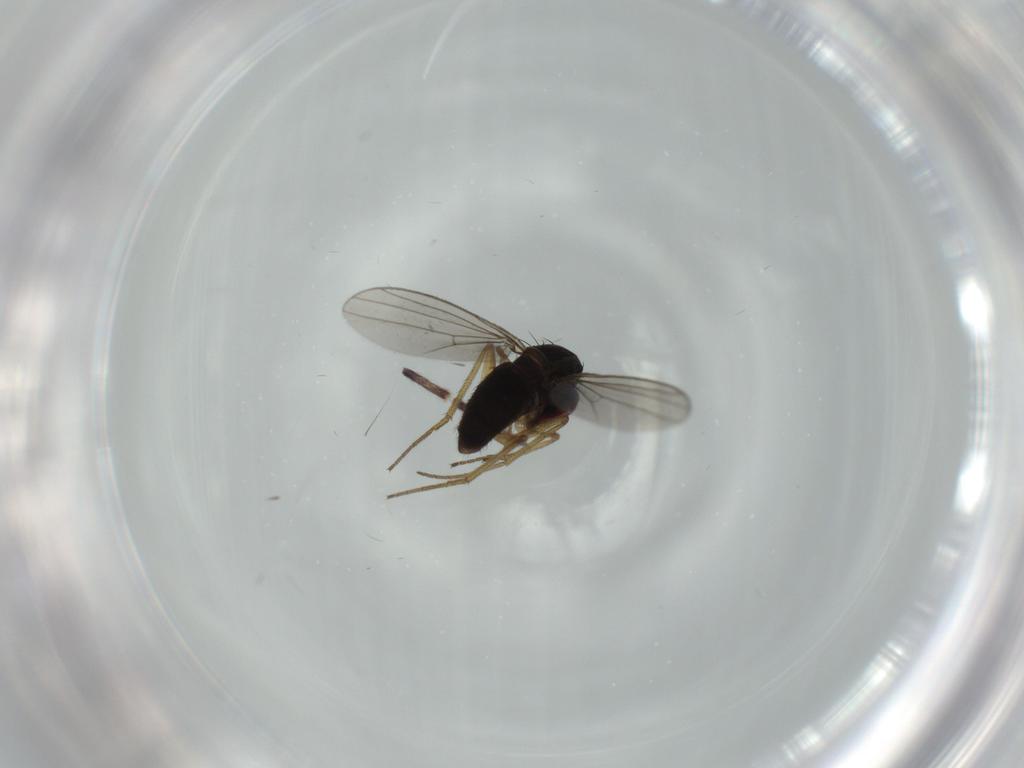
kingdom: Animalia
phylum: Arthropoda
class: Insecta
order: Diptera
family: Dolichopodidae
